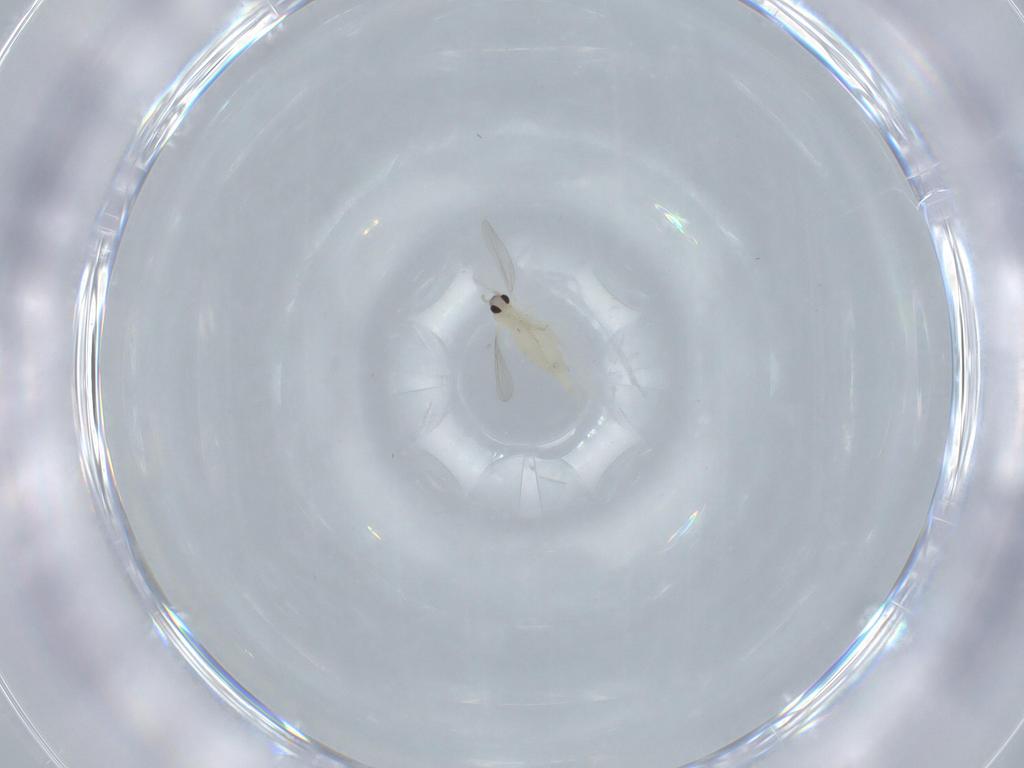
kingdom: Animalia
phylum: Arthropoda
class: Insecta
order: Diptera
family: Cecidomyiidae
